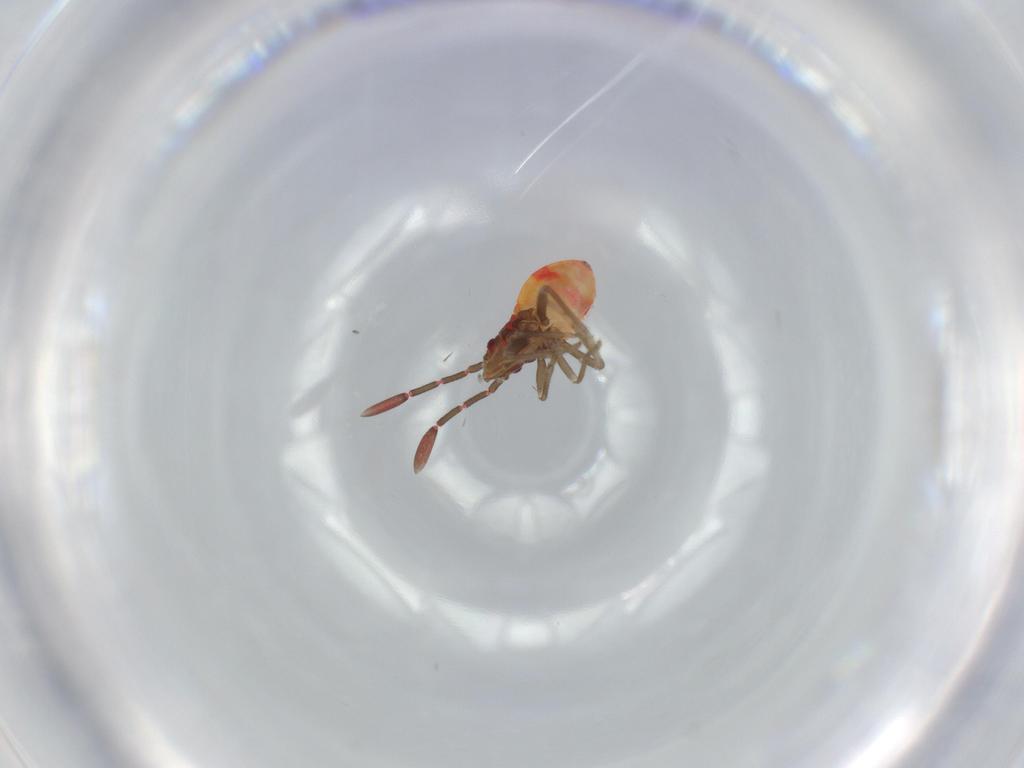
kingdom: Animalia
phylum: Arthropoda
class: Insecta
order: Hemiptera
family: Rhyparochromidae
